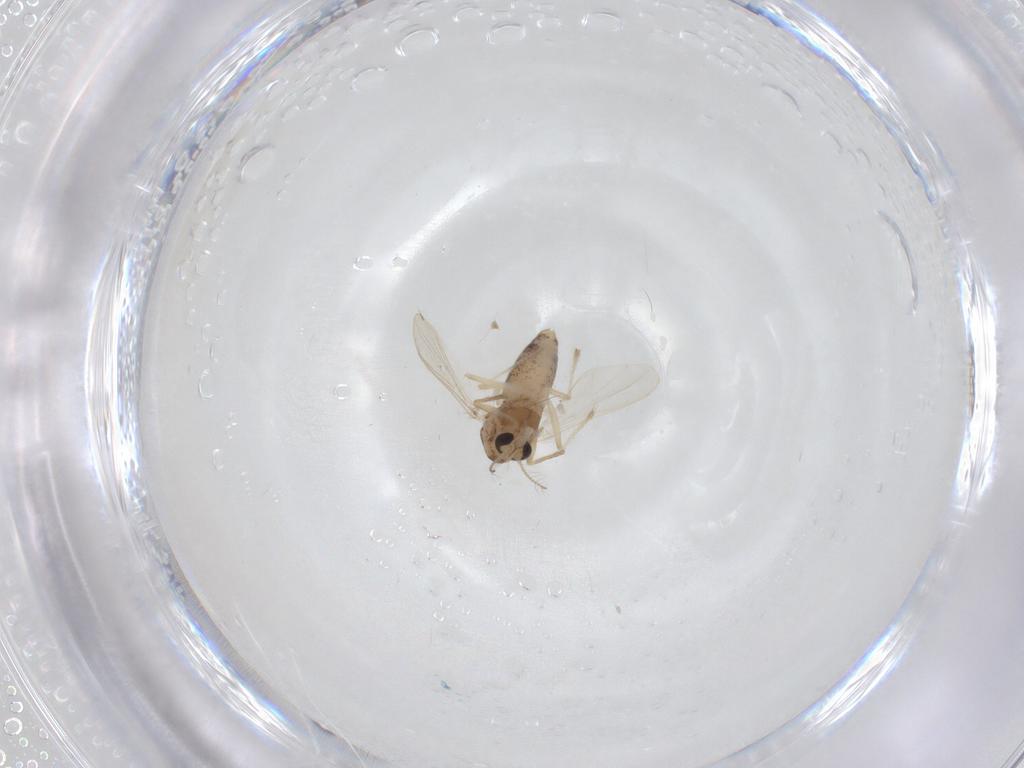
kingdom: Animalia
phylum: Arthropoda
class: Insecta
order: Diptera
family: Chironomidae
